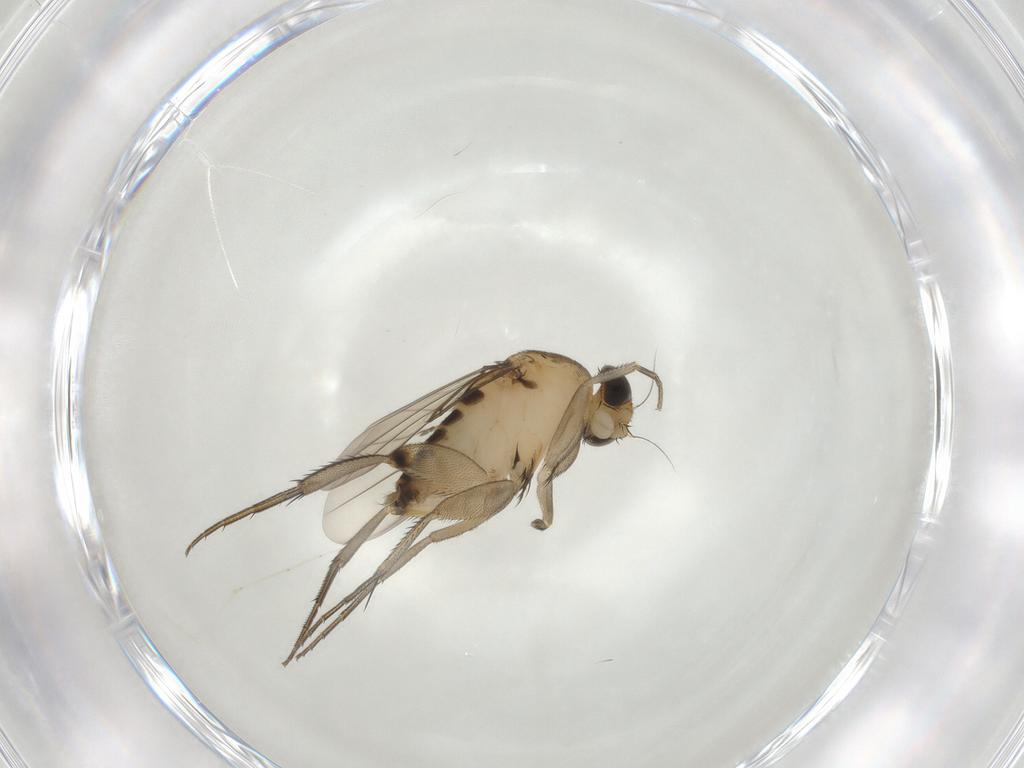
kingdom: Animalia
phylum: Arthropoda
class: Insecta
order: Diptera
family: Phoridae
